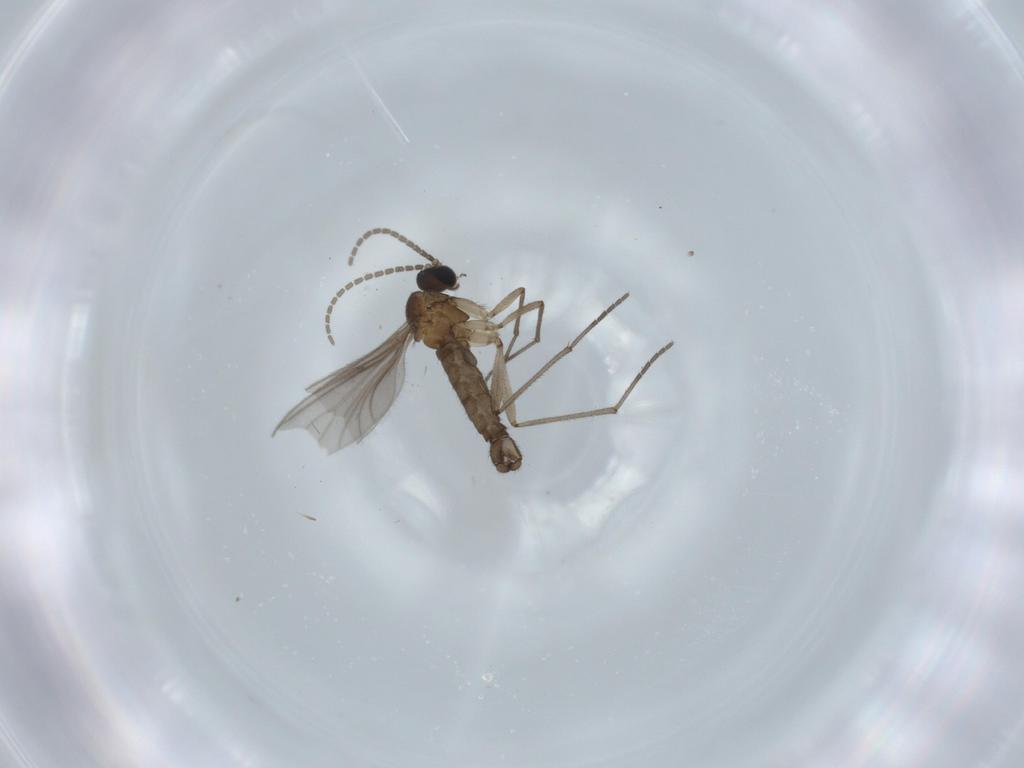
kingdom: Animalia
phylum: Arthropoda
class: Insecta
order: Diptera
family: Sciaridae
